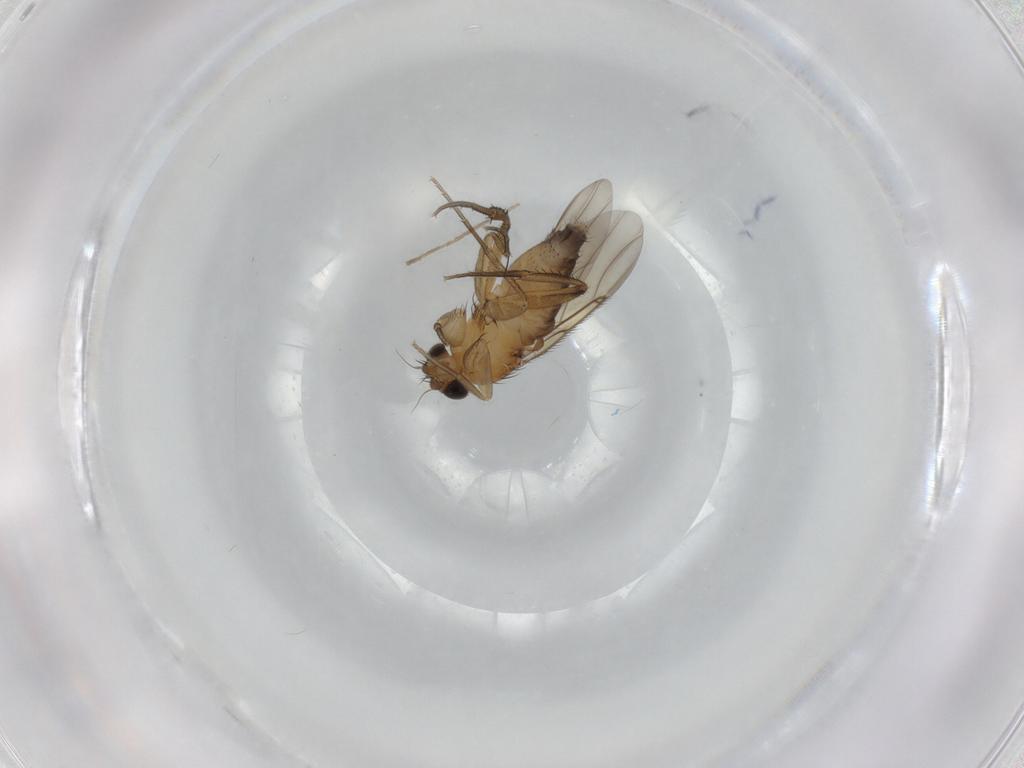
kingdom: Animalia
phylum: Arthropoda
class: Insecta
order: Diptera
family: Phoridae
